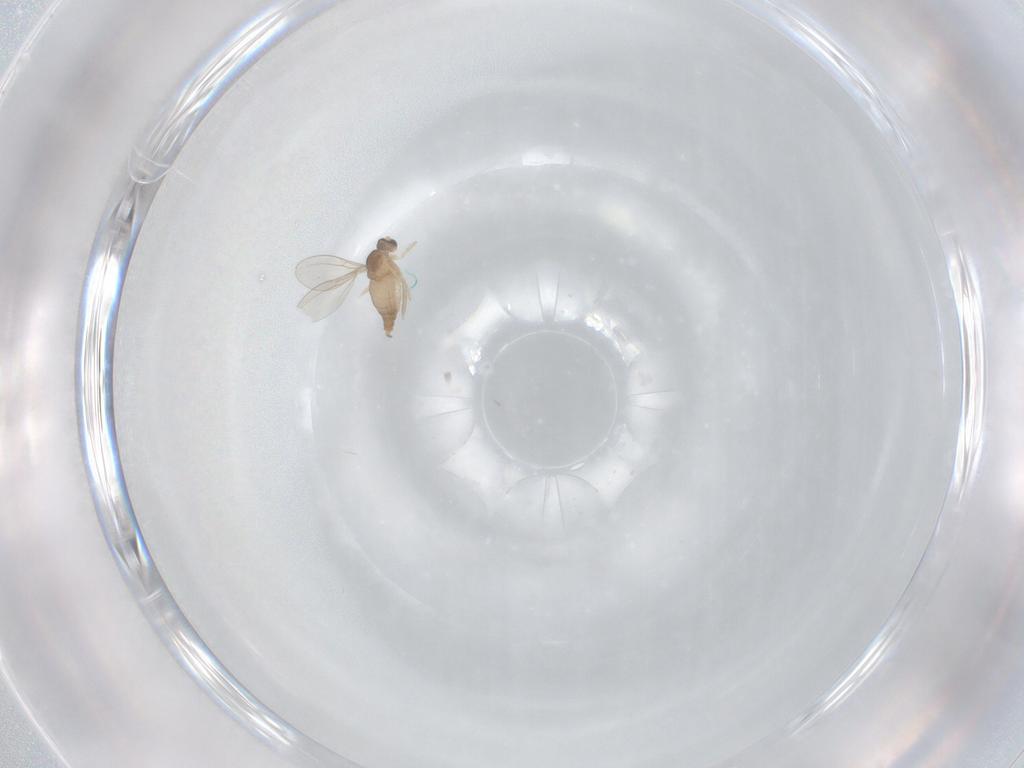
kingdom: Animalia
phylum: Arthropoda
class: Insecta
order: Diptera
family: Cecidomyiidae
